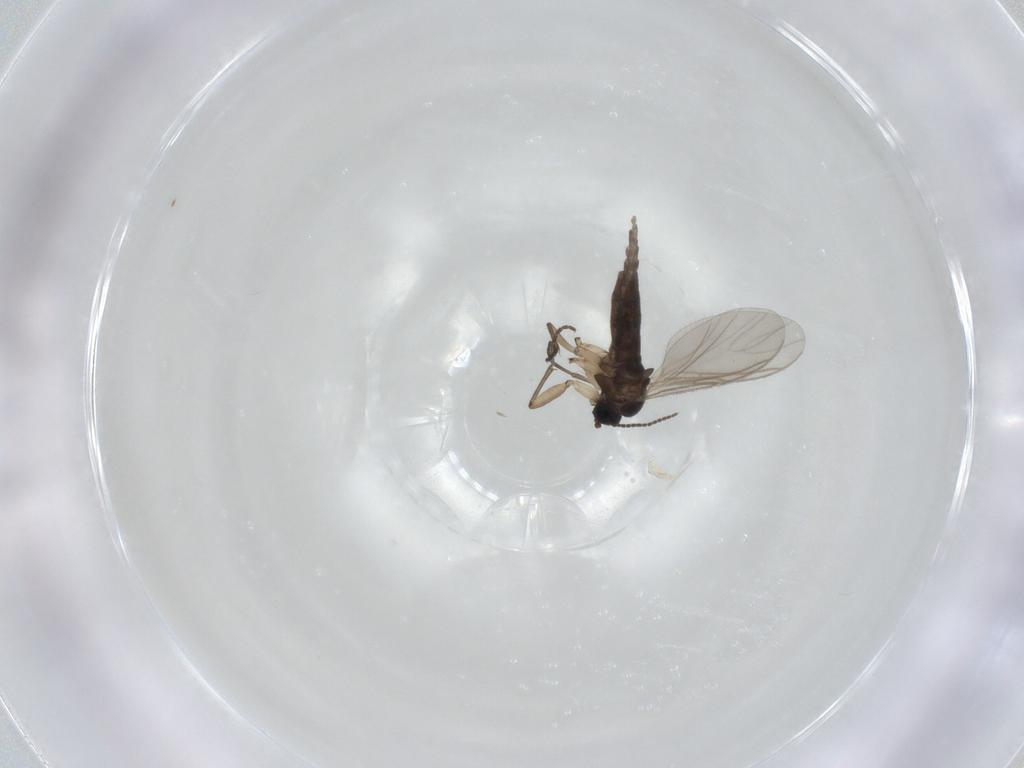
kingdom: Animalia
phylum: Arthropoda
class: Insecta
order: Diptera
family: Sciaridae
